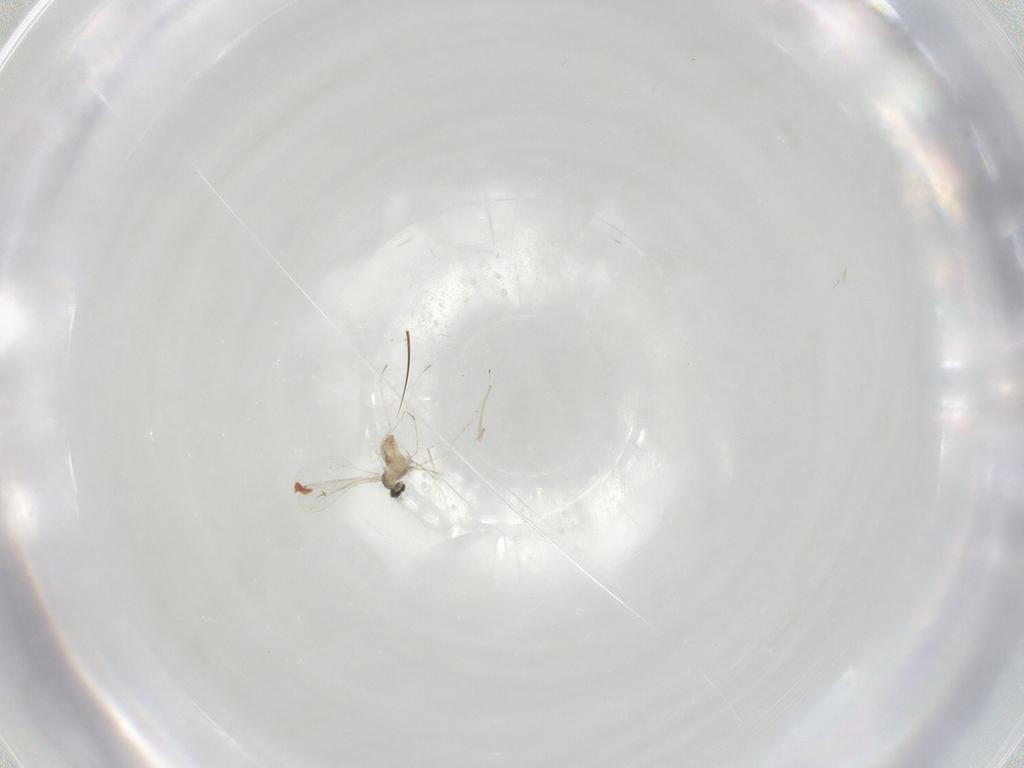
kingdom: Animalia
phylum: Arthropoda
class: Insecta
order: Diptera
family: Cecidomyiidae
